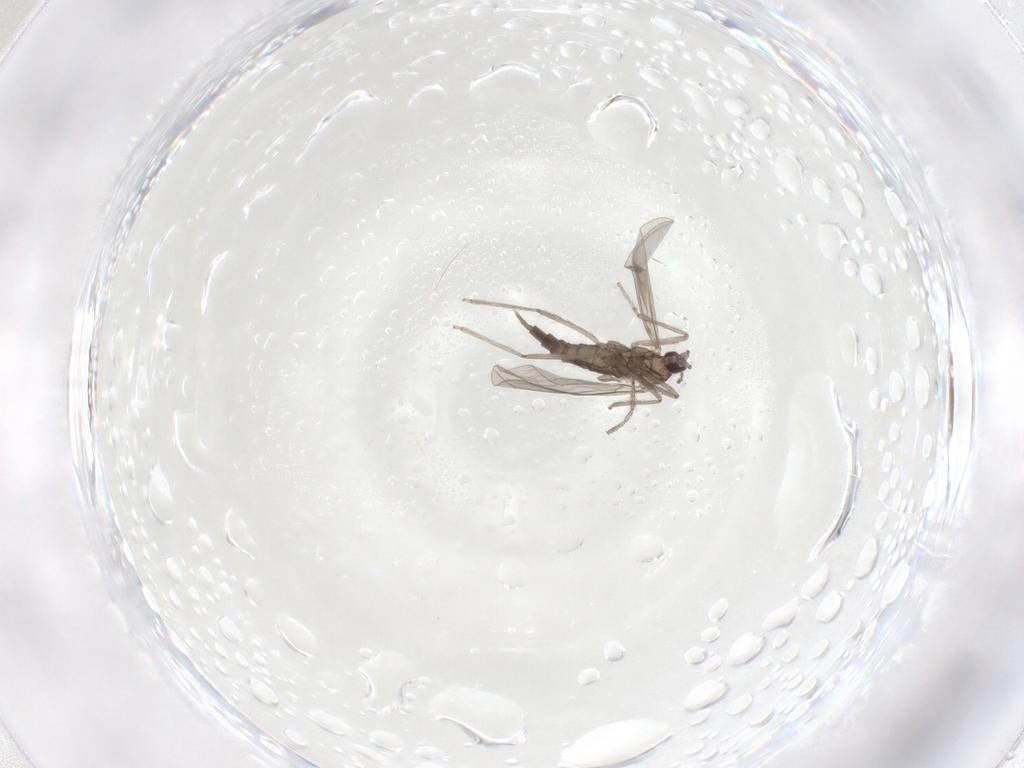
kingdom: Animalia
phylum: Arthropoda
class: Insecta
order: Diptera
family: Cecidomyiidae
